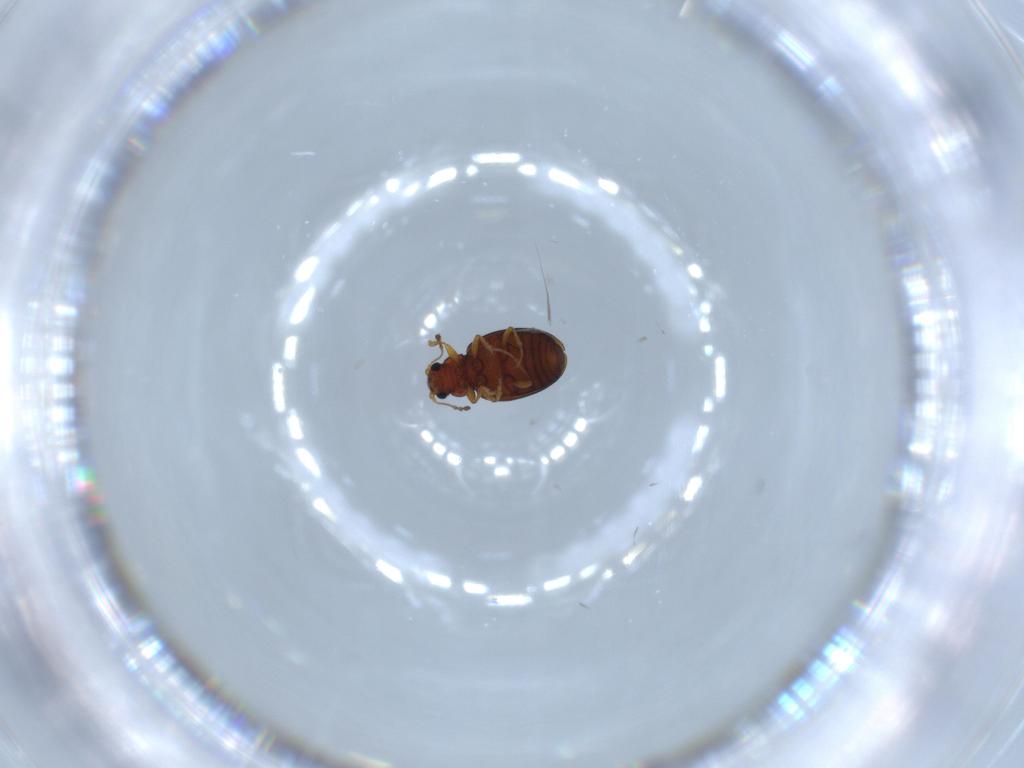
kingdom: Animalia
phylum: Arthropoda
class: Insecta
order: Coleoptera
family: Latridiidae
